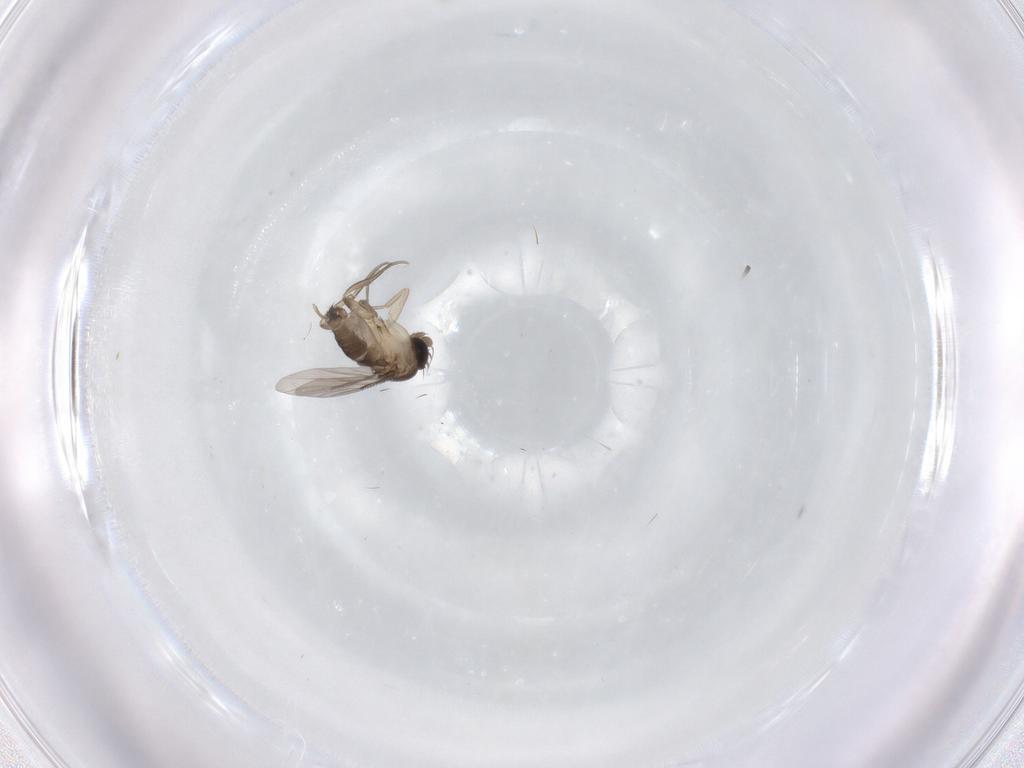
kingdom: Animalia
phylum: Arthropoda
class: Insecta
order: Diptera
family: Phoridae
